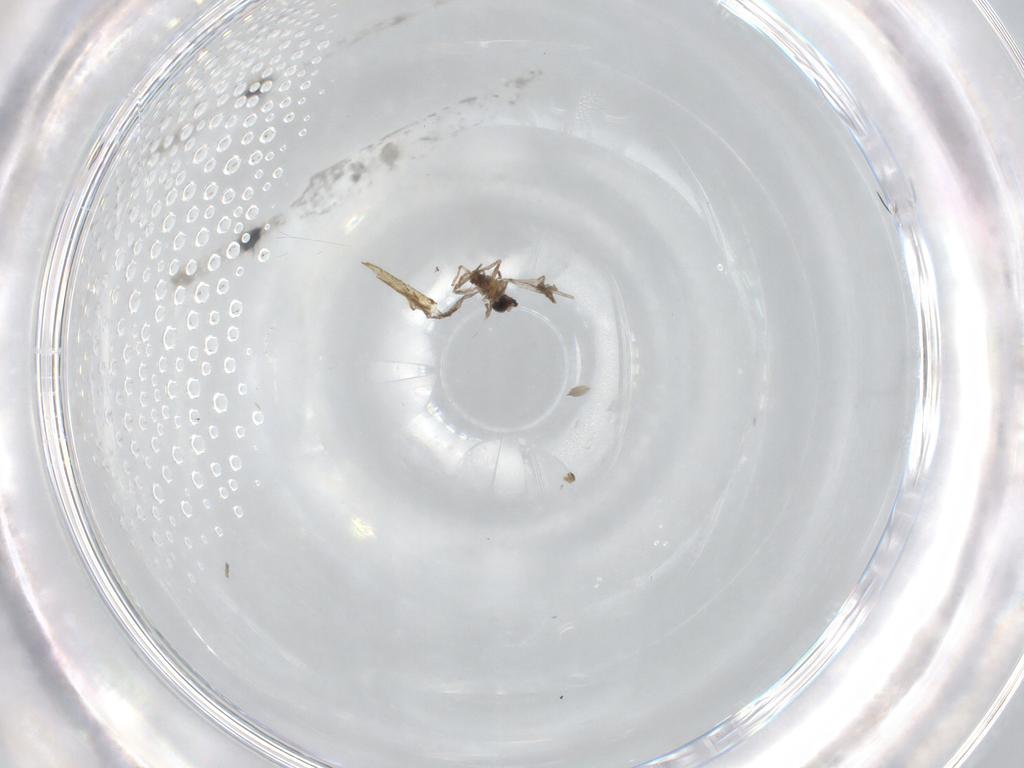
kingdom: Animalia
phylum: Arthropoda
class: Insecta
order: Diptera
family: Cecidomyiidae
